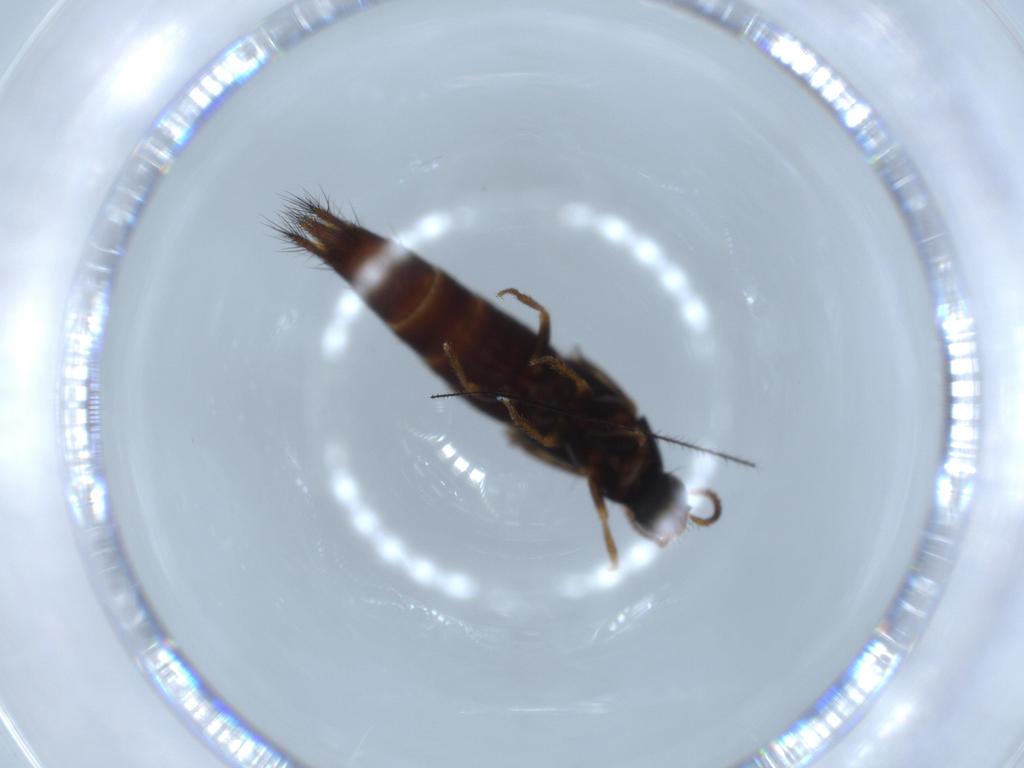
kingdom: Animalia
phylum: Arthropoda
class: Insecta
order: Coleoptera
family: Staphylinidae
